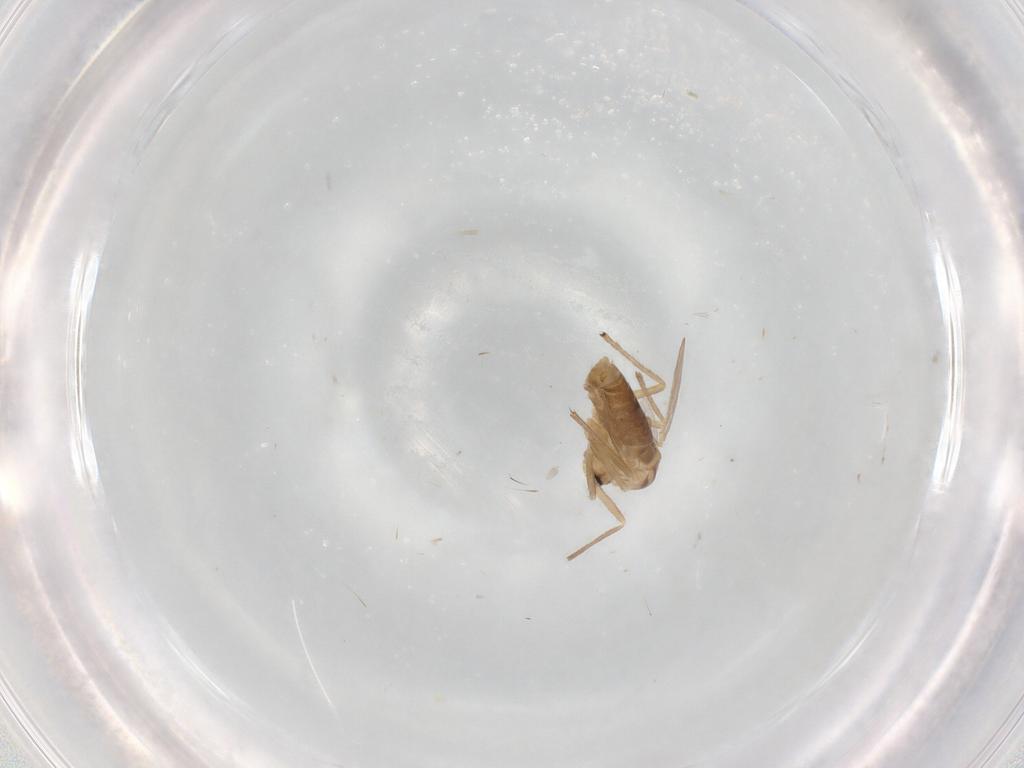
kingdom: Animalia
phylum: Arthropoda
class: Insecta
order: Diptera
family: Chironomidae
